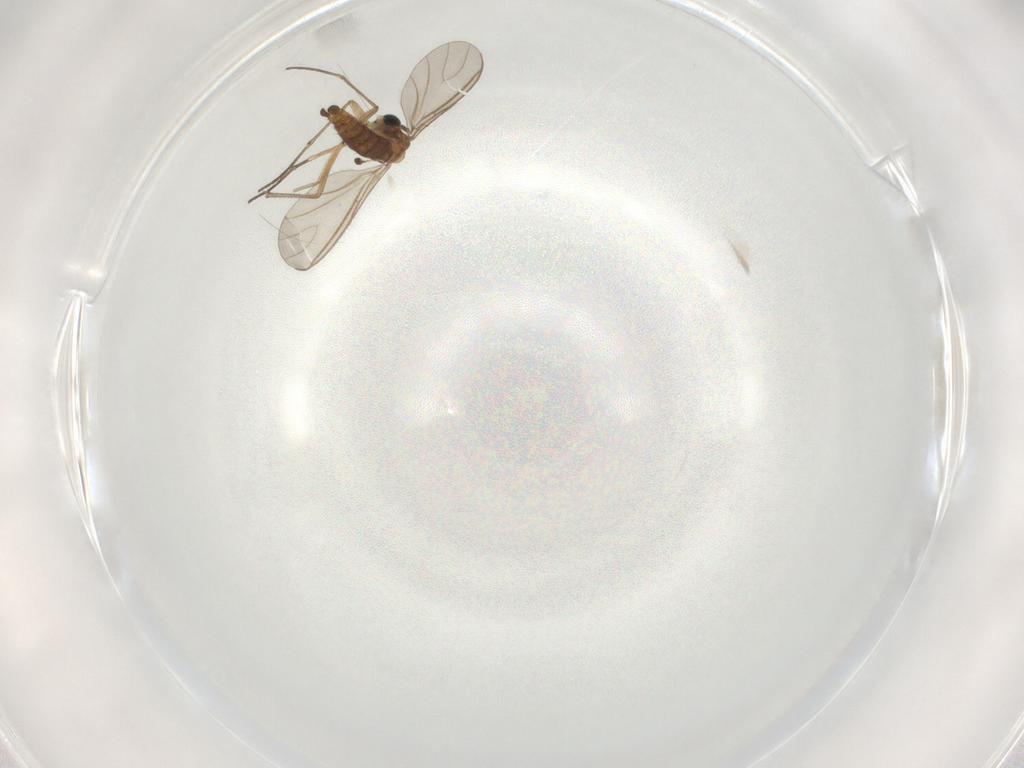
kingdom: Animalia
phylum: Arthropoda
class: Insecta
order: Diptera
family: Sciaridae
